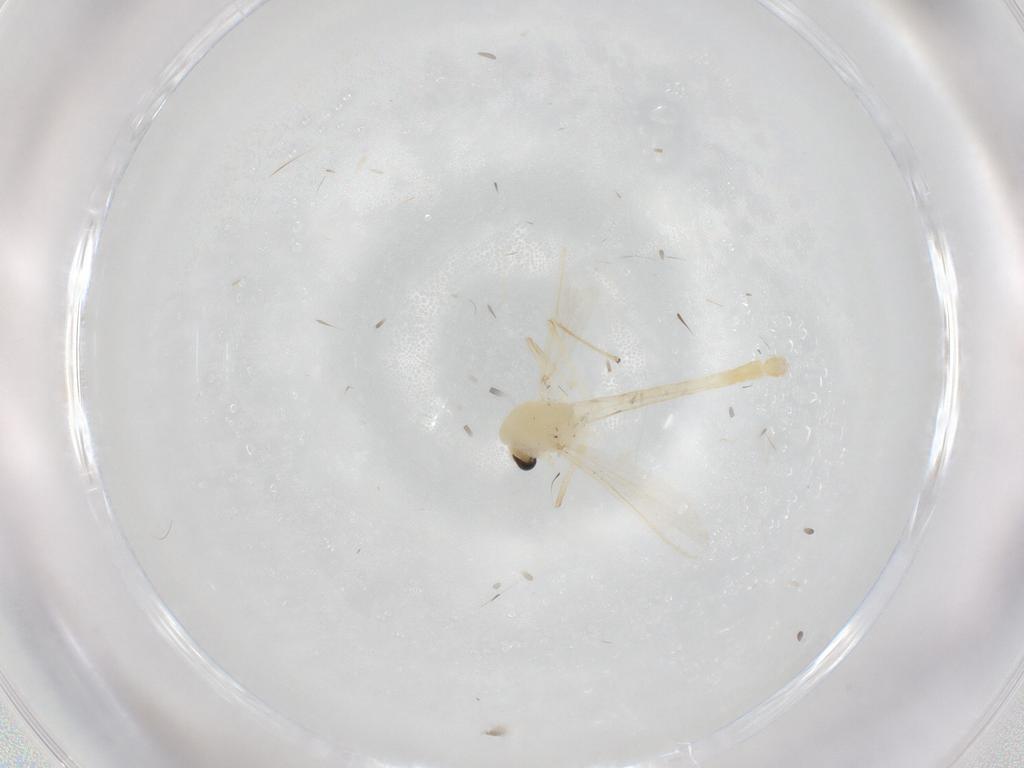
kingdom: Animalia
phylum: Arthropoda
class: Insecta
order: Diptera
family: Chironomidae
